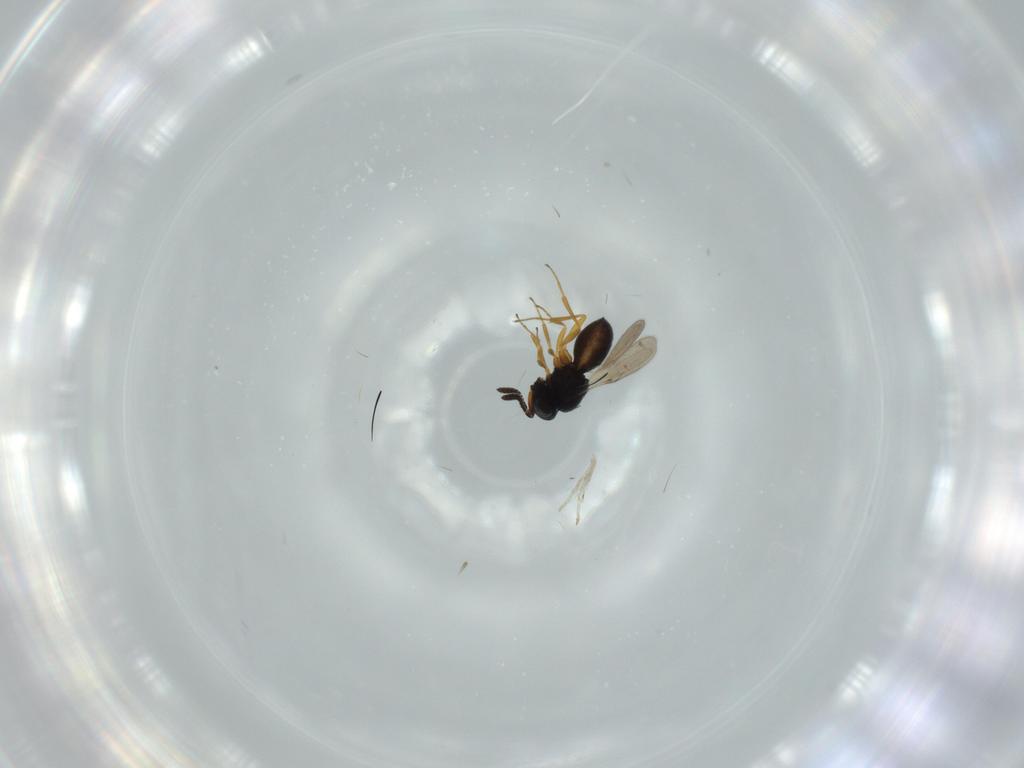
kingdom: Animalia
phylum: Arthropoda
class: Insecta
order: Hymenoptera
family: Scelionidae
